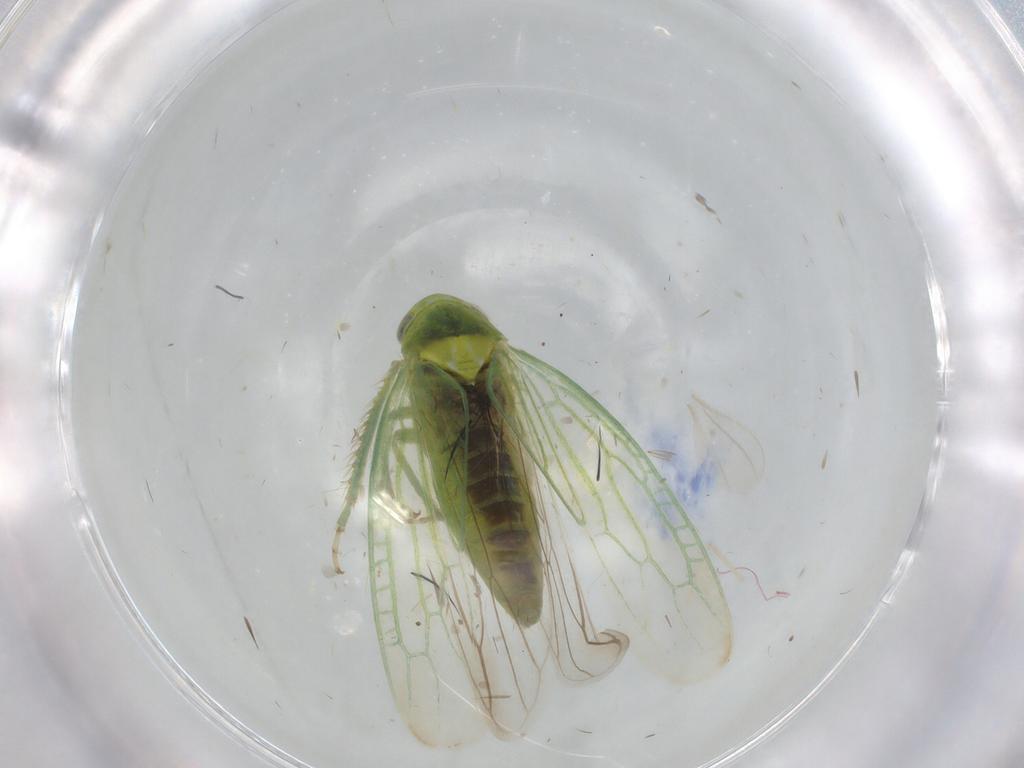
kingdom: Animalia
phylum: Arthropoda
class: Insecta
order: Hemiptera
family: Cicadellidae
